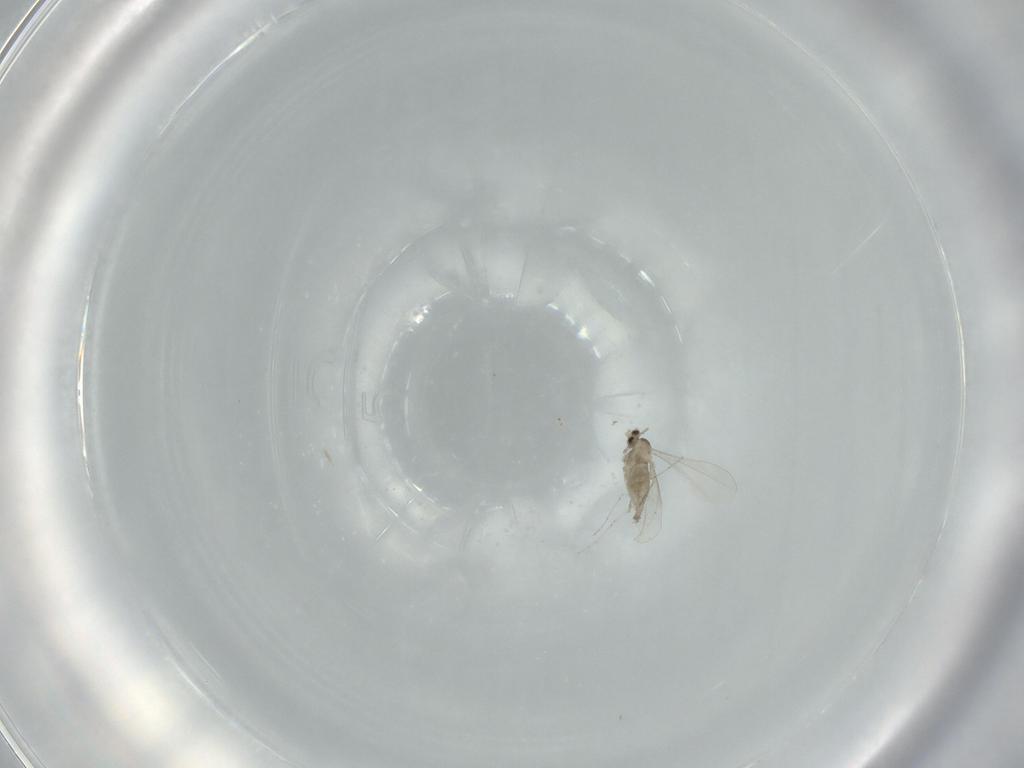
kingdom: Animalia
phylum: Arthropoda
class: Insecta
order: Diptera
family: Cecidomyiidae
